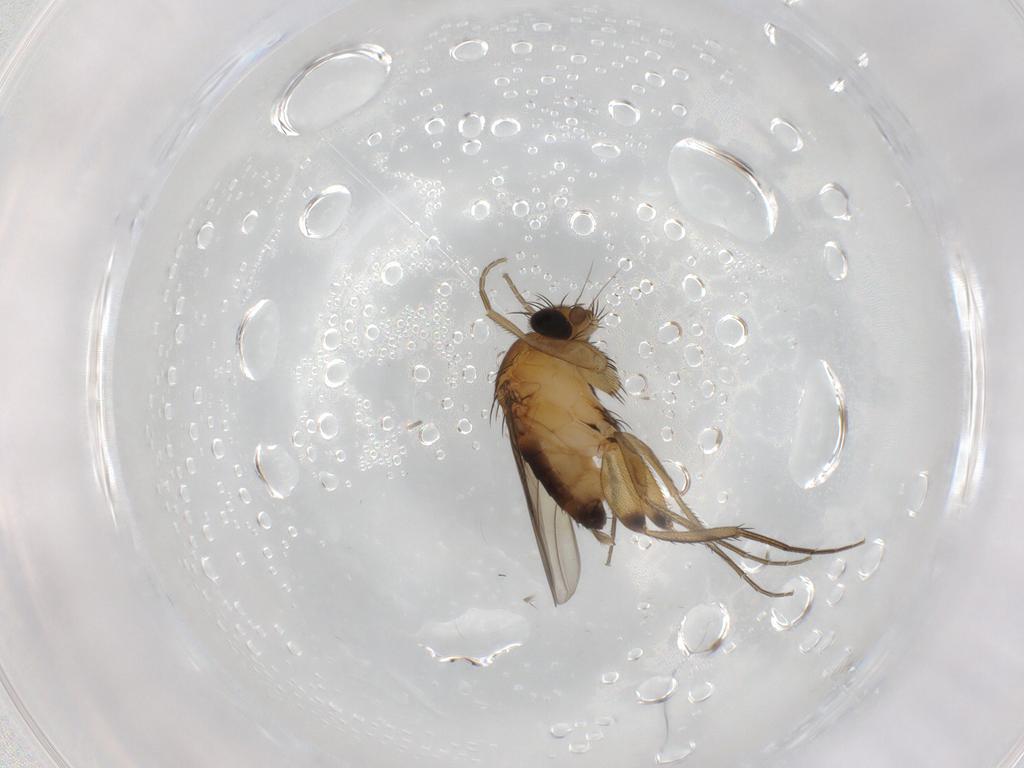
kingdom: Animalia
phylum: Arthropoda
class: Insecta
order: Diptera
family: Phoridae
